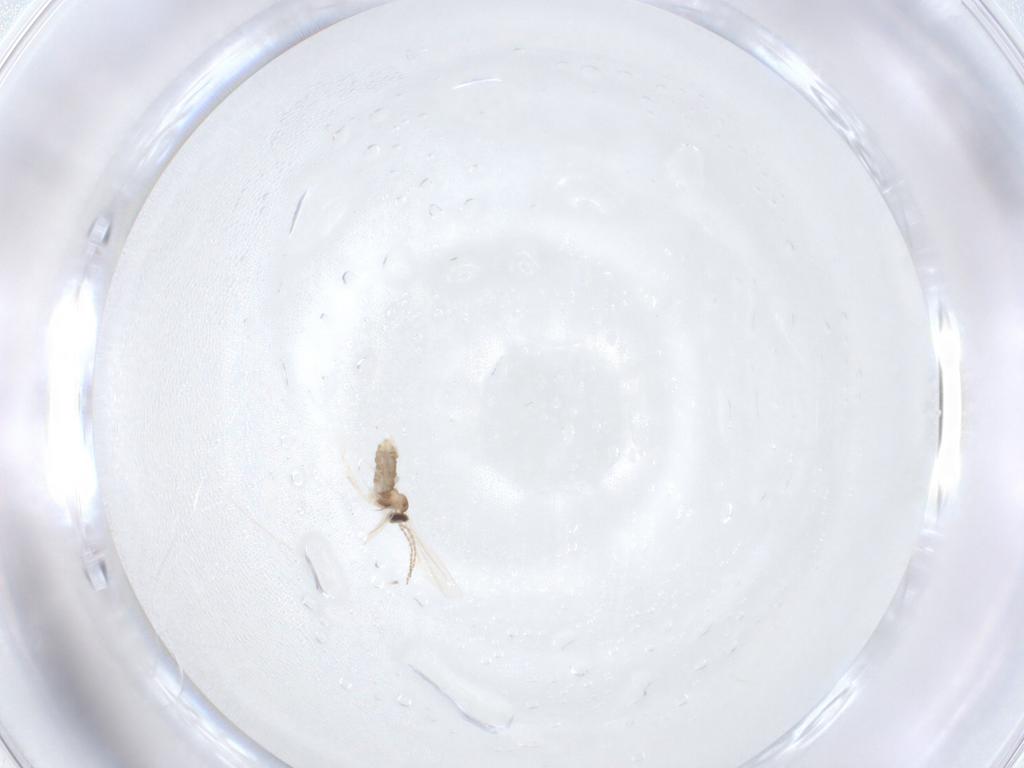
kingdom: Animalia
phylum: Arthropoda
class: Insecta
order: Diptera
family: Cecidomyiidae
